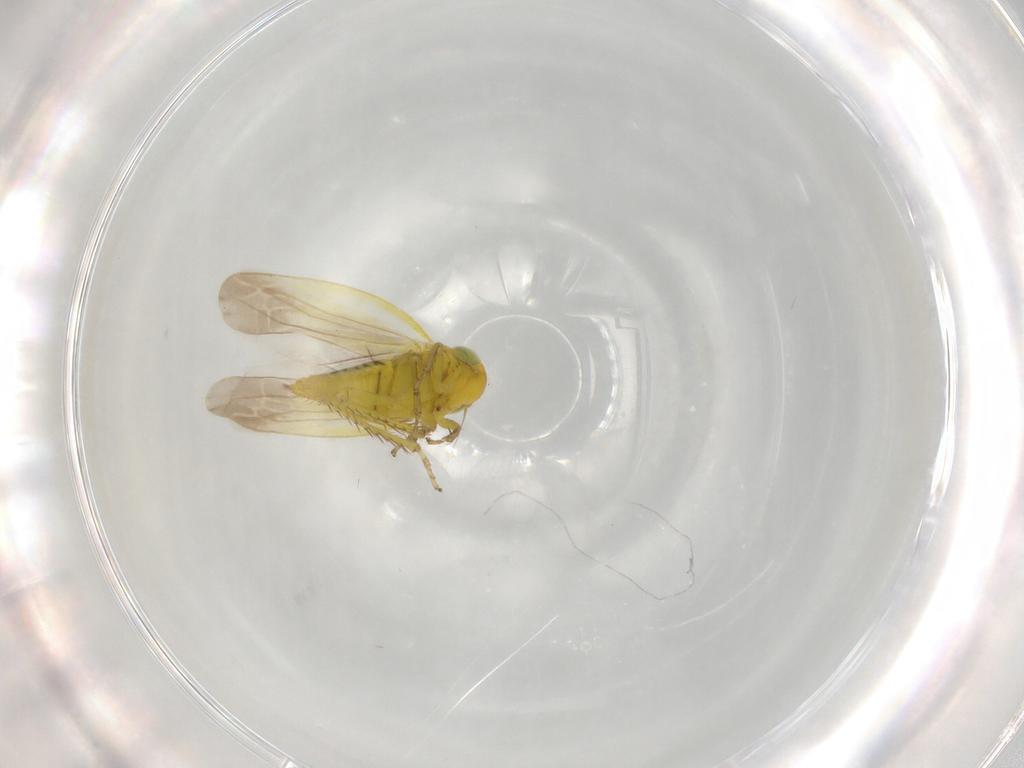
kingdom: Animalia
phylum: Arthropoda
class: Insecta
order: Hemiptera
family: Cicadellidae
